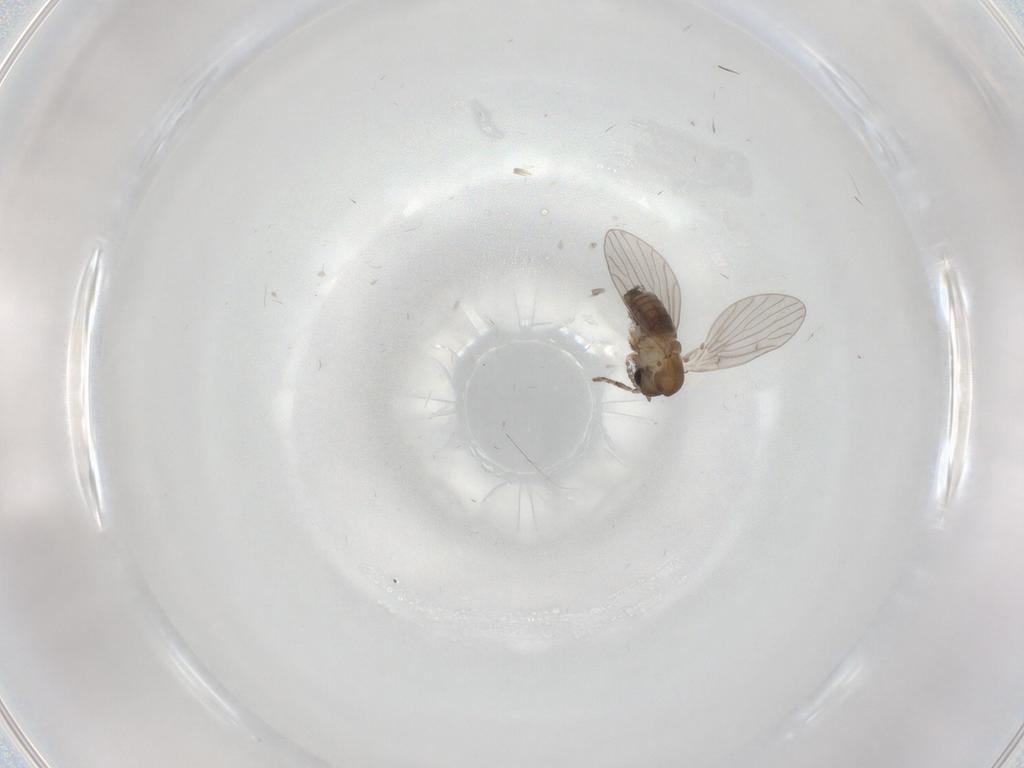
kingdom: Animalia
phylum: Arthropoda
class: Insecta
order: Diptera
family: Sciaridae
